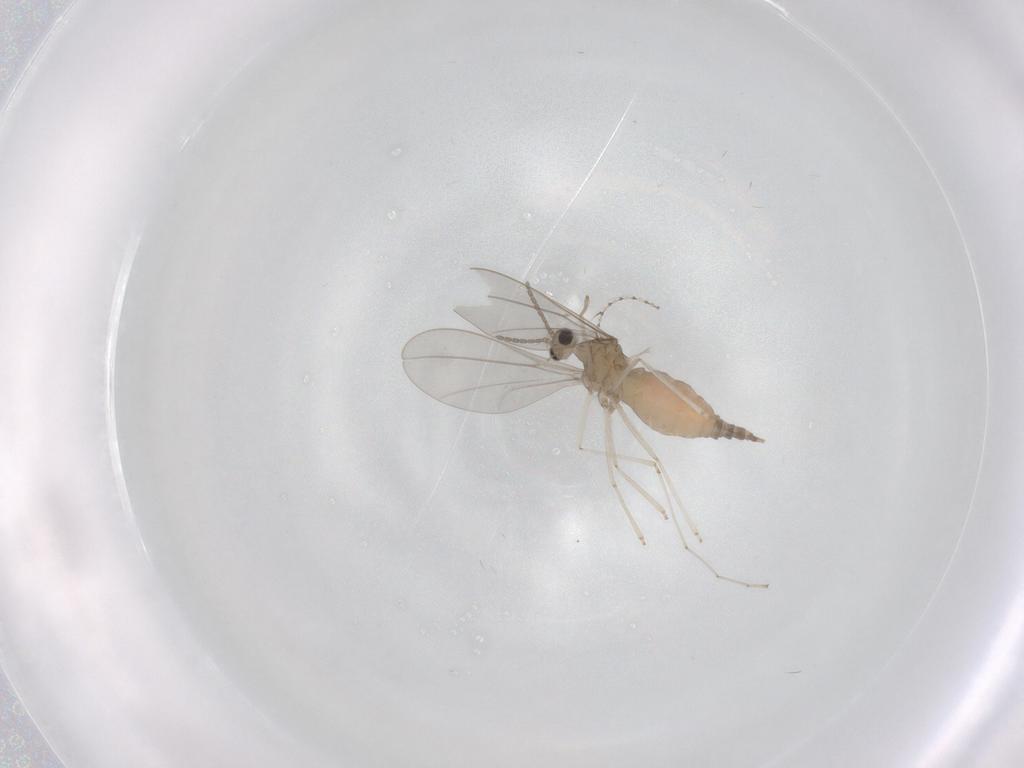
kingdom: Animalia
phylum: Arthropoda
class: Insecta
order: Diptera
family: Cecidomyiidae
